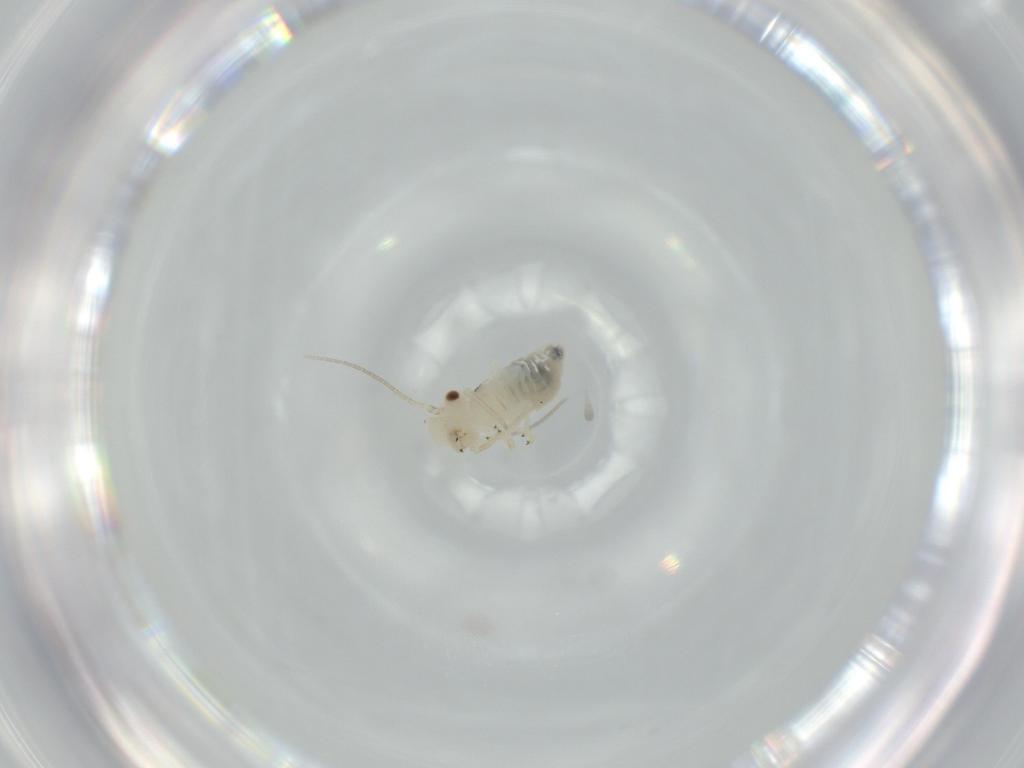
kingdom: Animalia
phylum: Arthropoda
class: Insecta
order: Psocodea
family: Caeciliusidae
